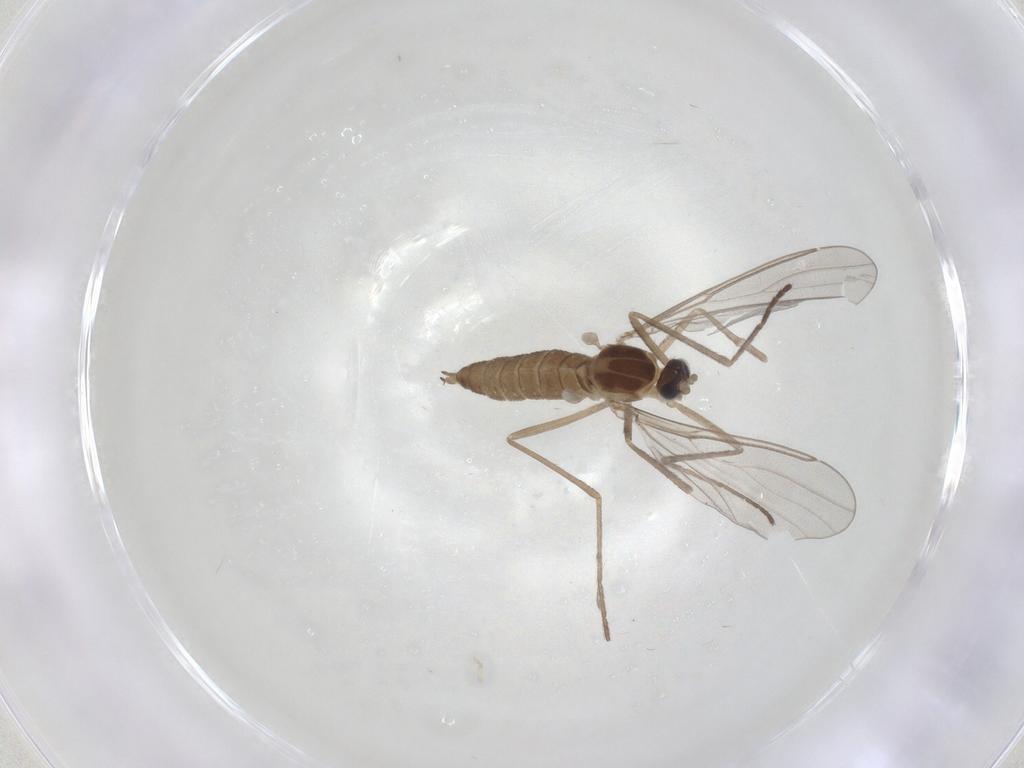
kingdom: Animalia
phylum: Arthropoda
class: Insecta
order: Diptera
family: Cecidomyiidae
